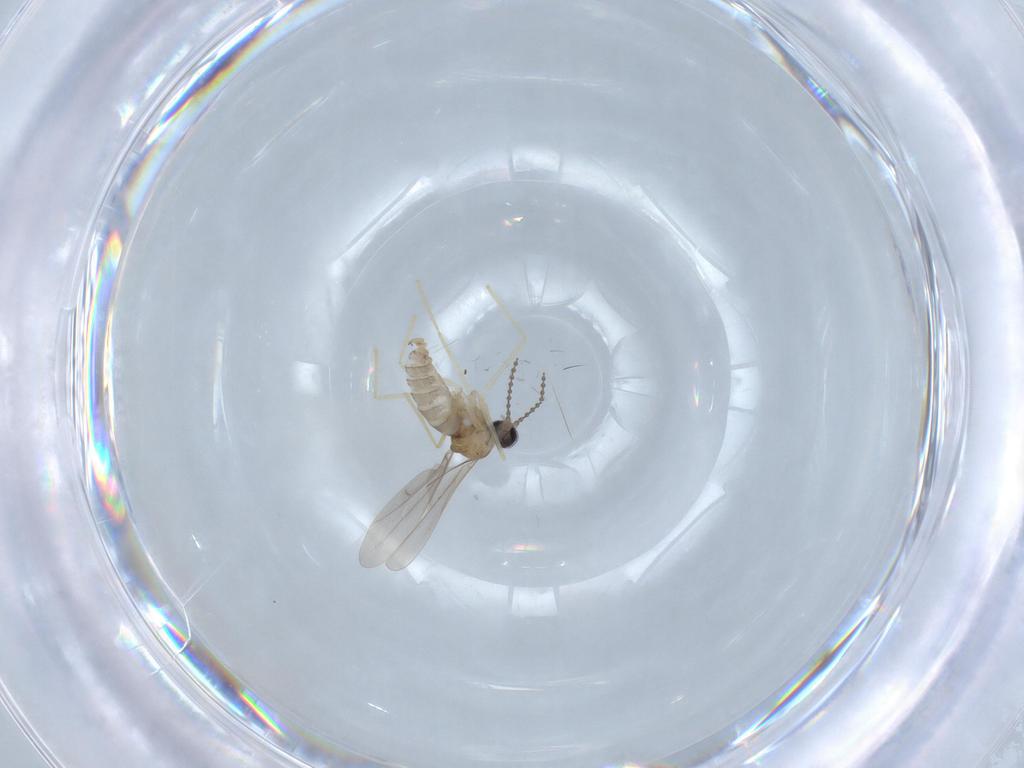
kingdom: Animalia
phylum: Arthropoda
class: Insecta
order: Diptera
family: Cecidomyiidae
